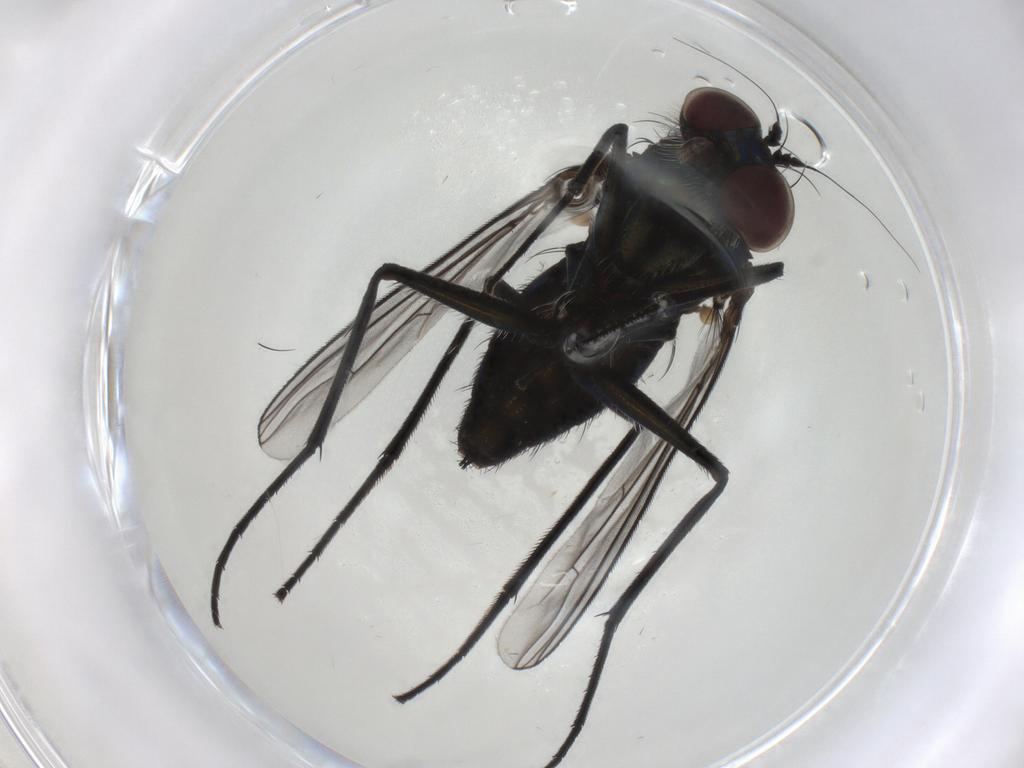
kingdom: Animalia
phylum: Arthropoda
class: Insecta
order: Diptera
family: Dolichopodidae
